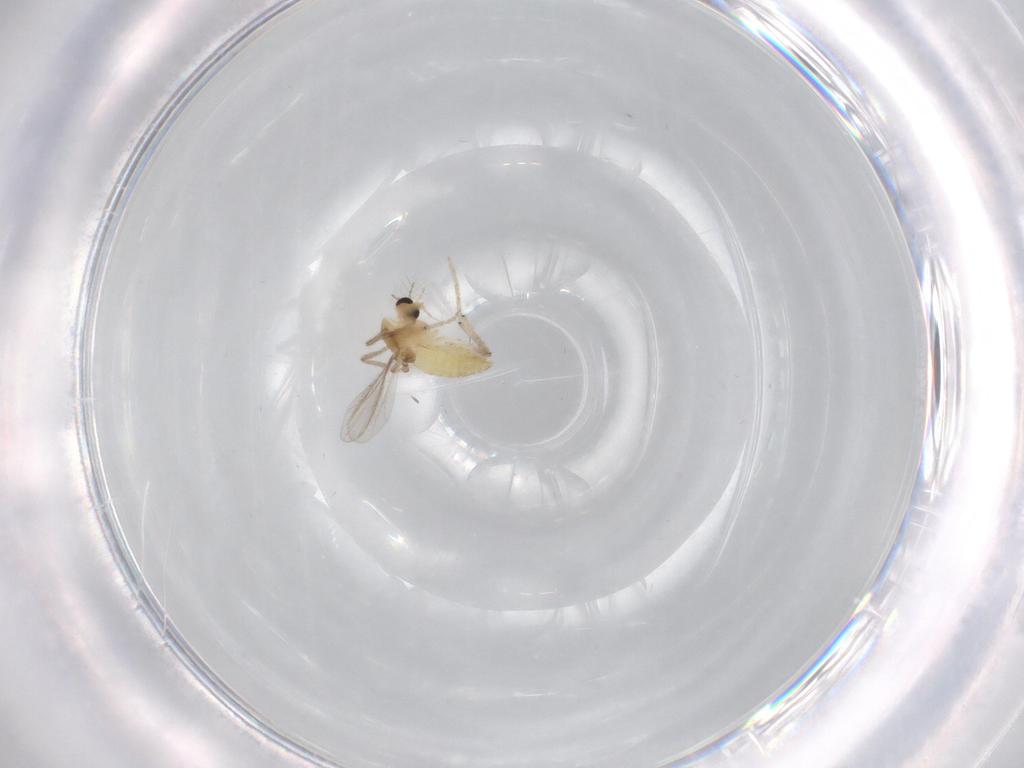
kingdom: Animalia
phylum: Arthropoda
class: Insecta
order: Diptera
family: Chironomidae
